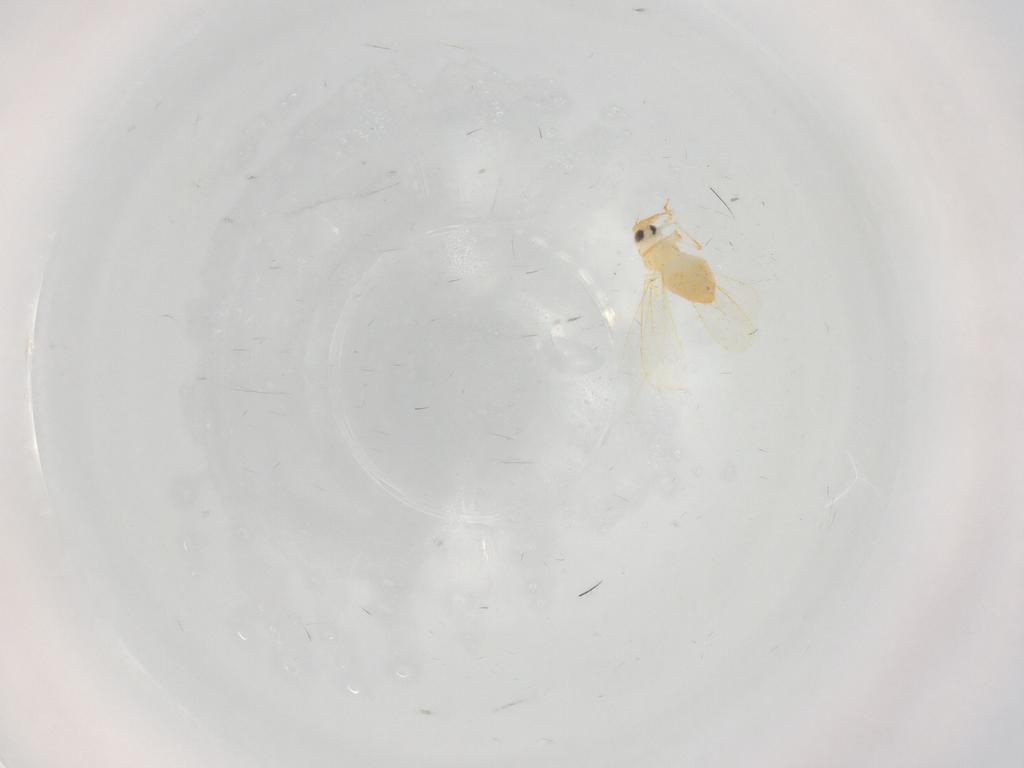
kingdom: Animalia
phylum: Arthropoda
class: Insecta
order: Hemiptera
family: Aleyrodidae
